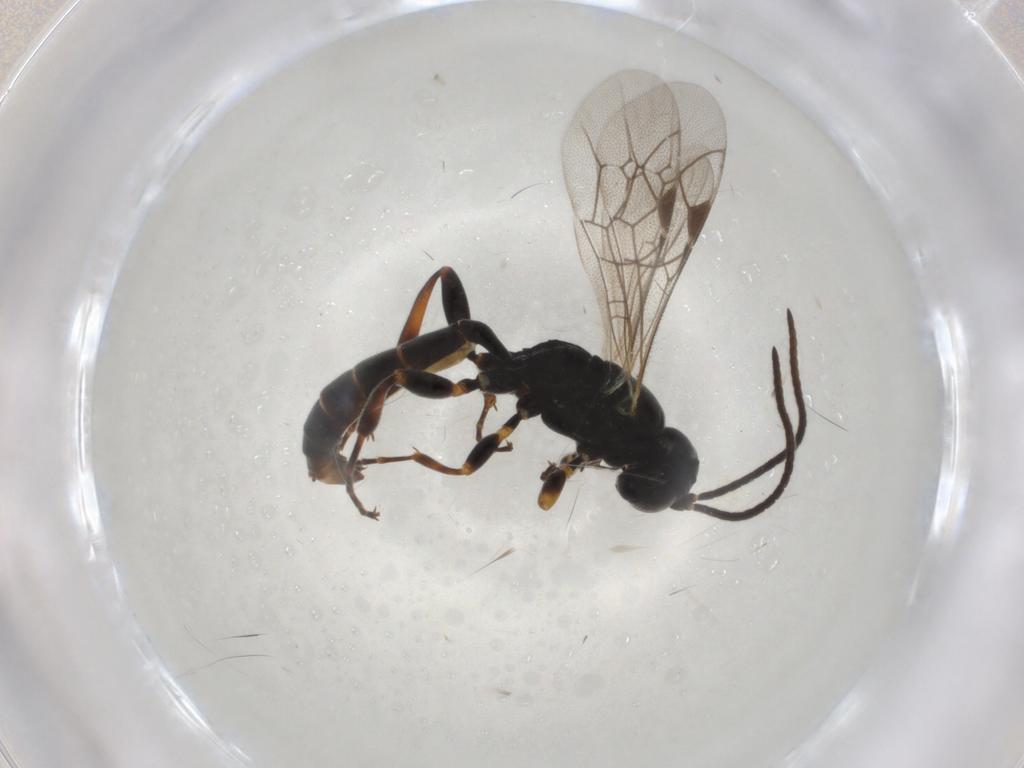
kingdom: Animalia
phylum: Arthropoda
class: Insecta
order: Hymenoptera
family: Ichneumonidae
